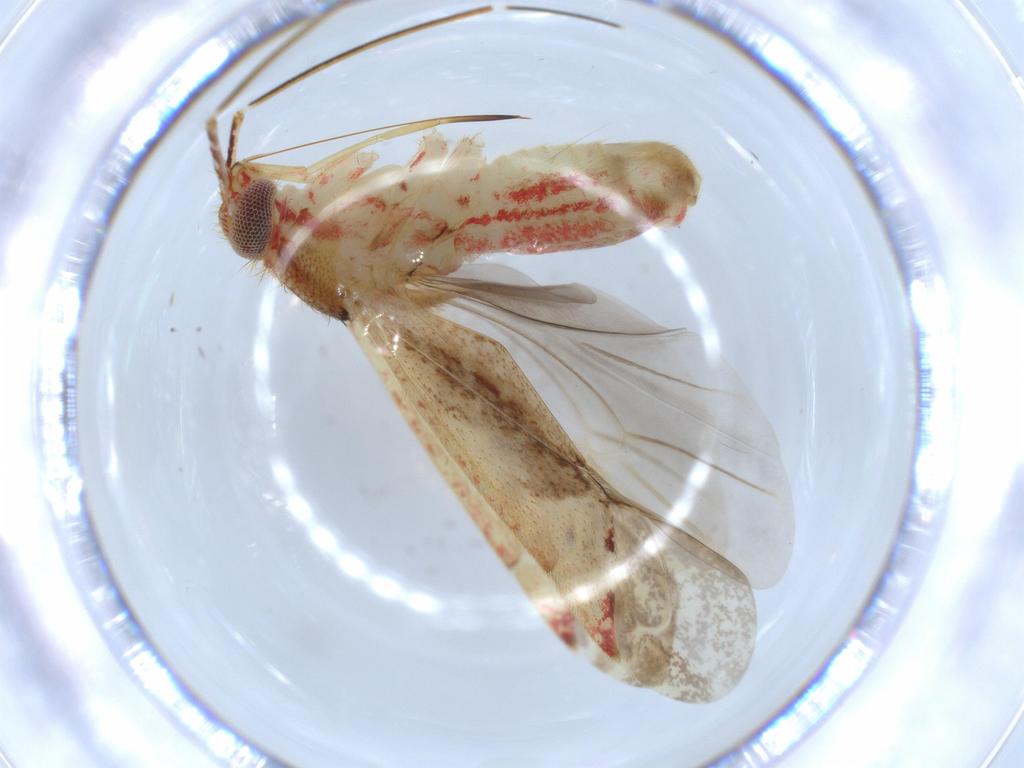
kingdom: Animalia
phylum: Arthropoda
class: Insecta
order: Hemiptera
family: Miridae
